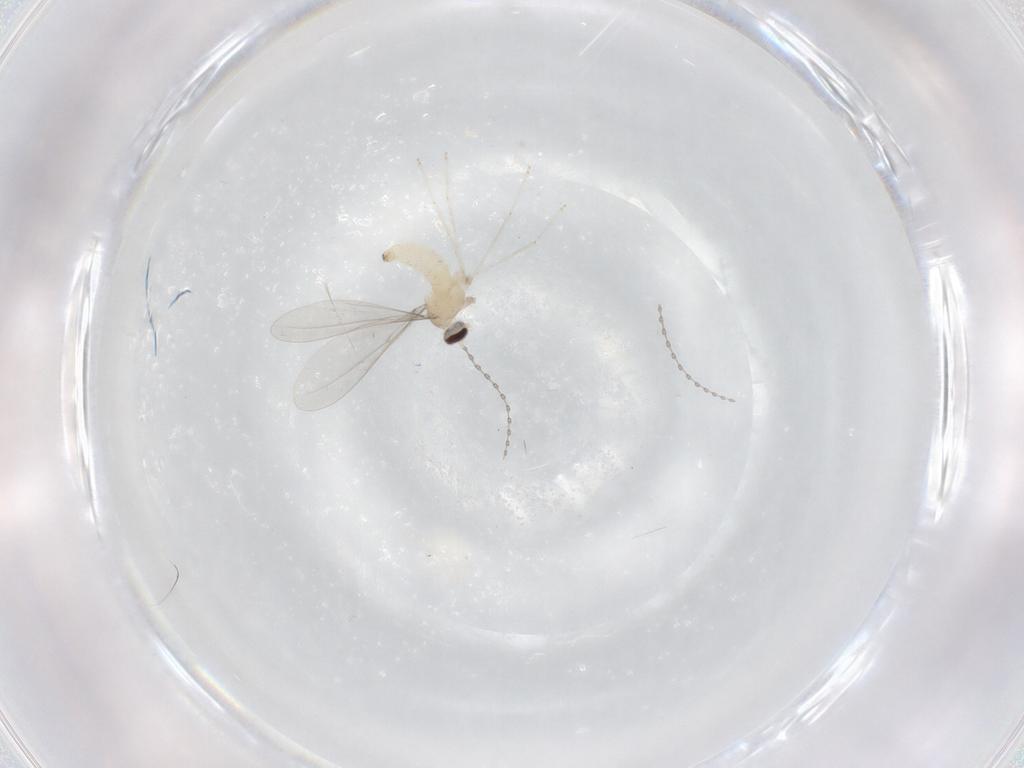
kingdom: Animalia
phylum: Arthropoda
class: Insecta
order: Diptera
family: Cecidomyiidae
